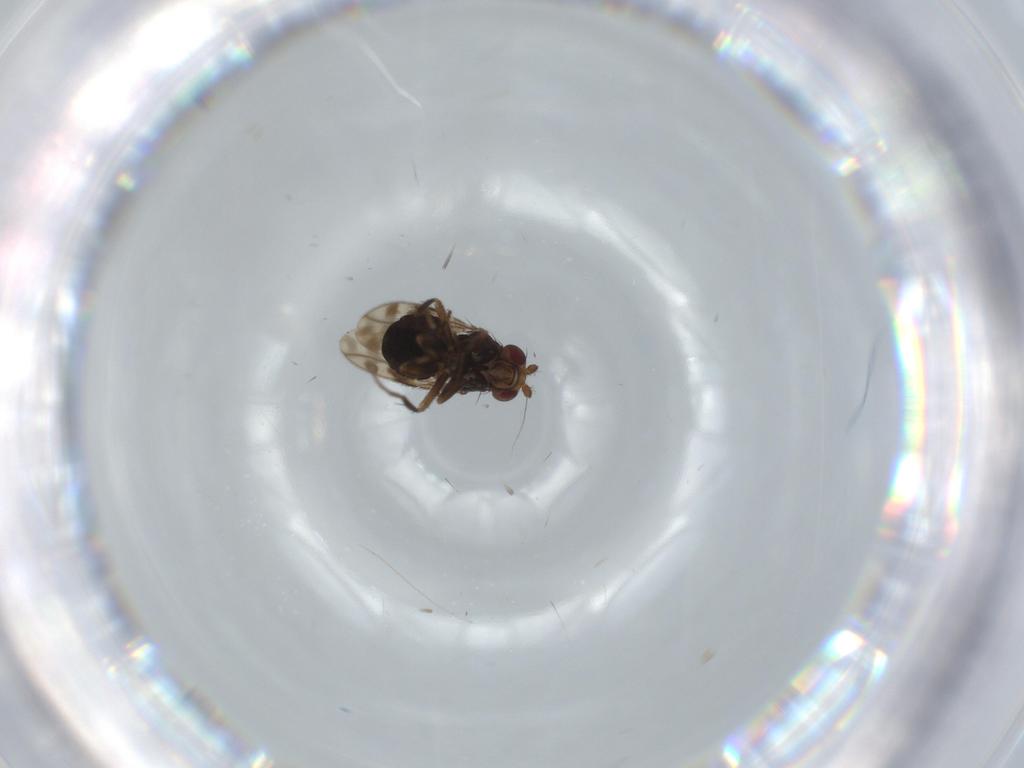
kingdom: Animalia
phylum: Arthropoda
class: Insecta
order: Diptera
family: Sphaeroceridae
